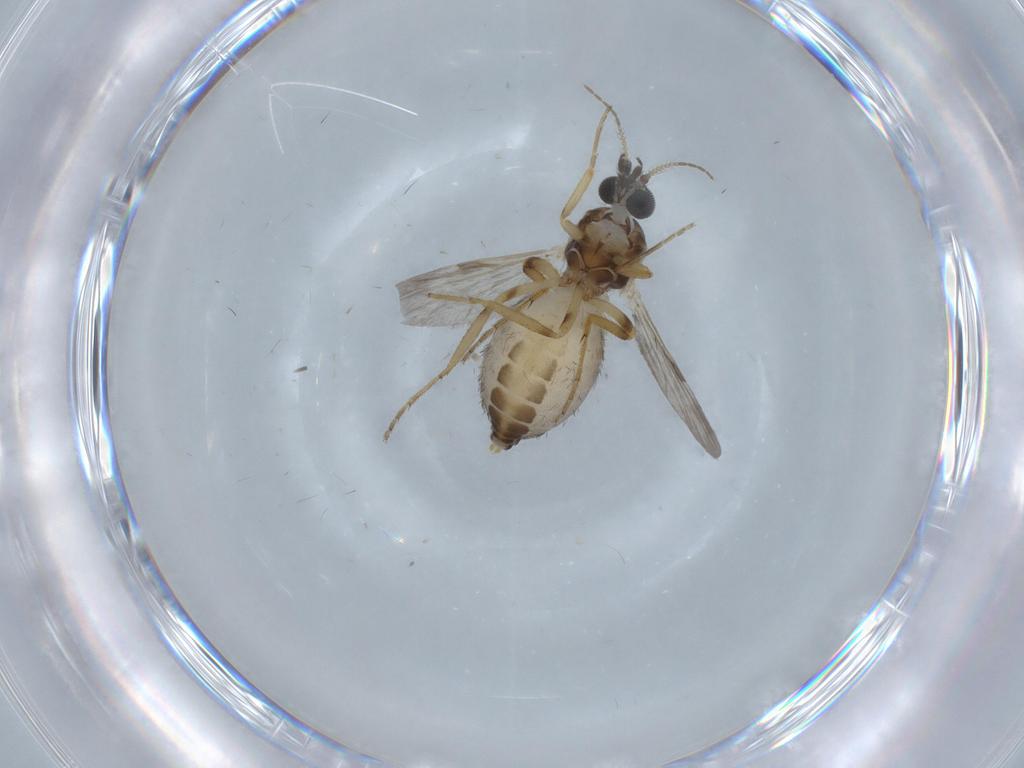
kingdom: Animalia
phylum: Arthropoda
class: Insecta
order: Diptera
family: Ceratopogonidae
